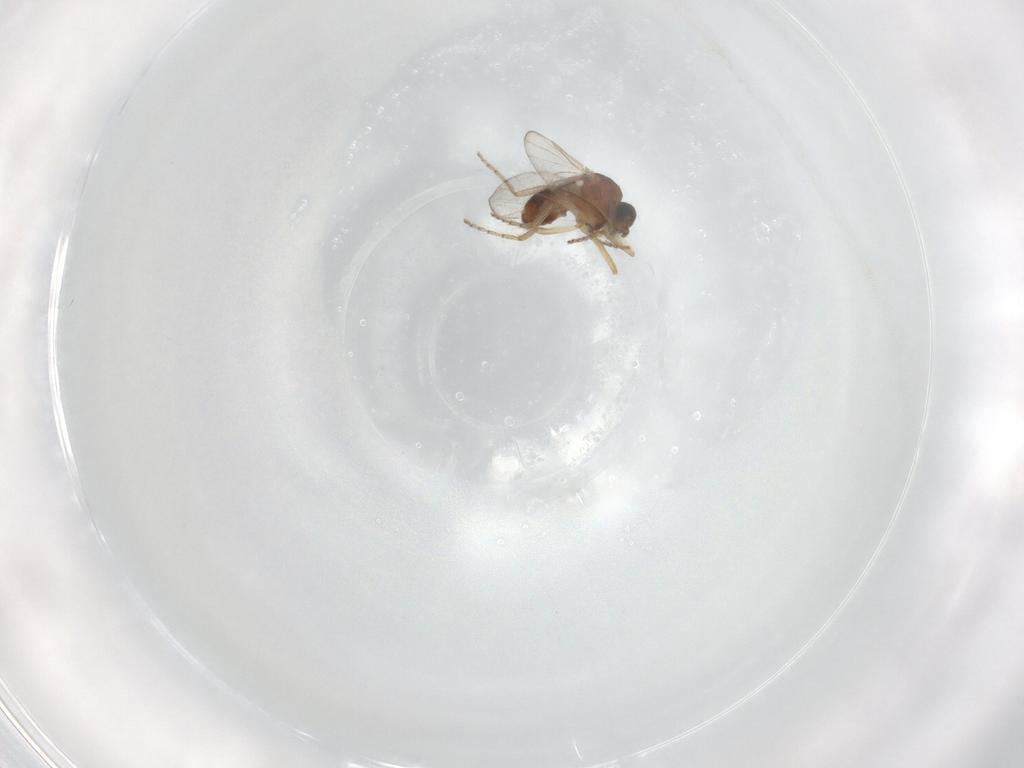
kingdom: Animalia
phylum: Arthropoda
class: Insecta
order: Diptera
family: Ceratopogonidae
